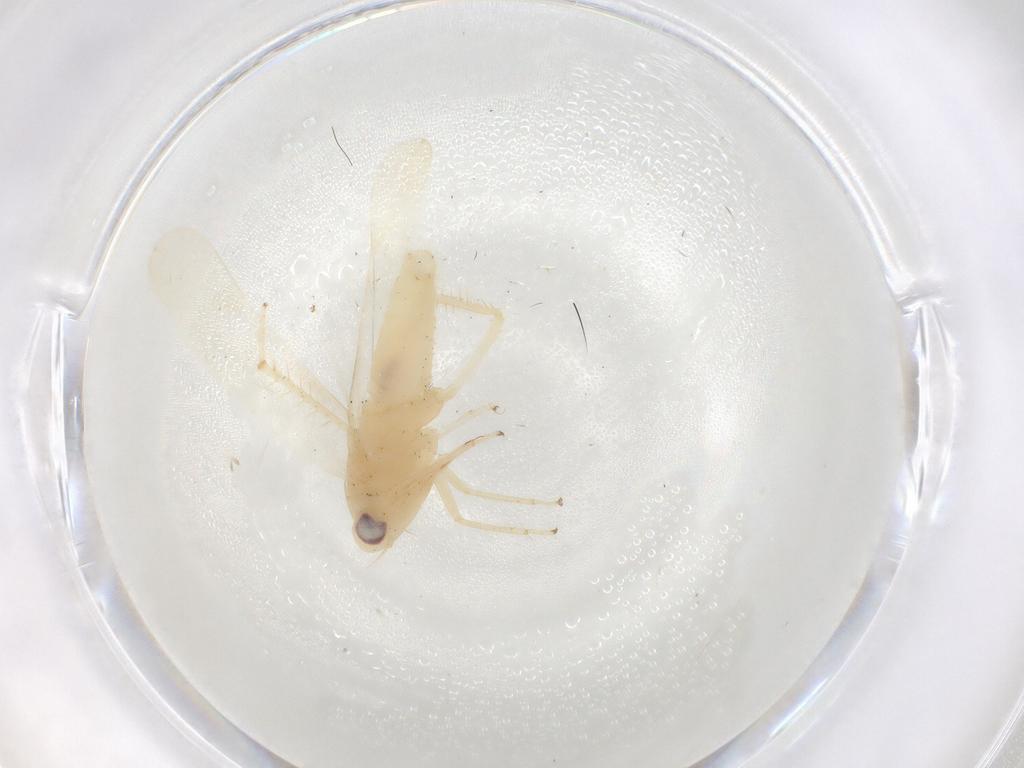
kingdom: Animalia
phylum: Arthropoda
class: Insecta
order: Hemiptera
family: Cicadellidae
